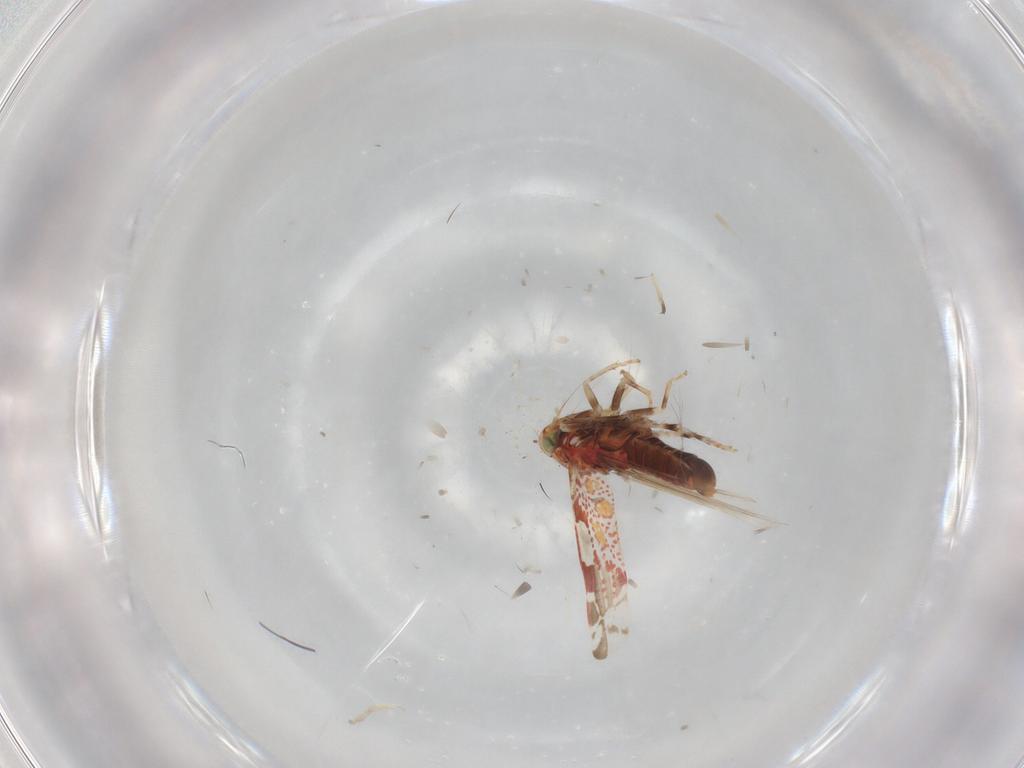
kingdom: Animalia
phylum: Arthropoda
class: Insecta
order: Hemiptera
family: Cicadellidae
